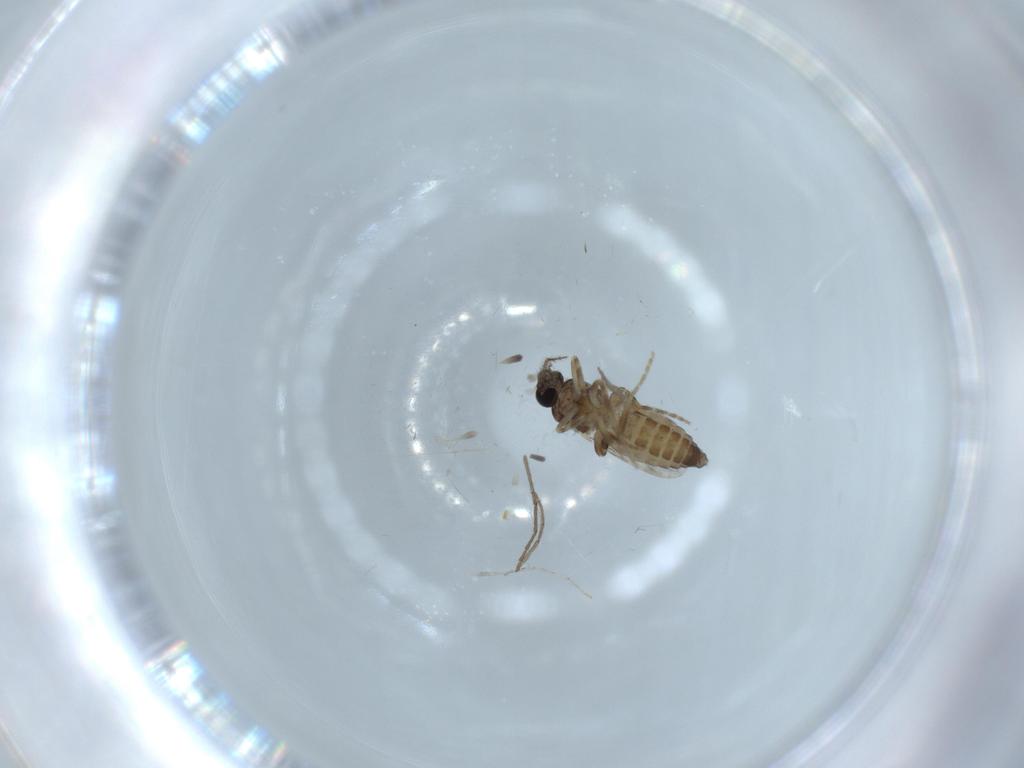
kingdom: Animalia
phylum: Arthropoda
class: Insecta
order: Diptera
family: Ceratopogonidae
